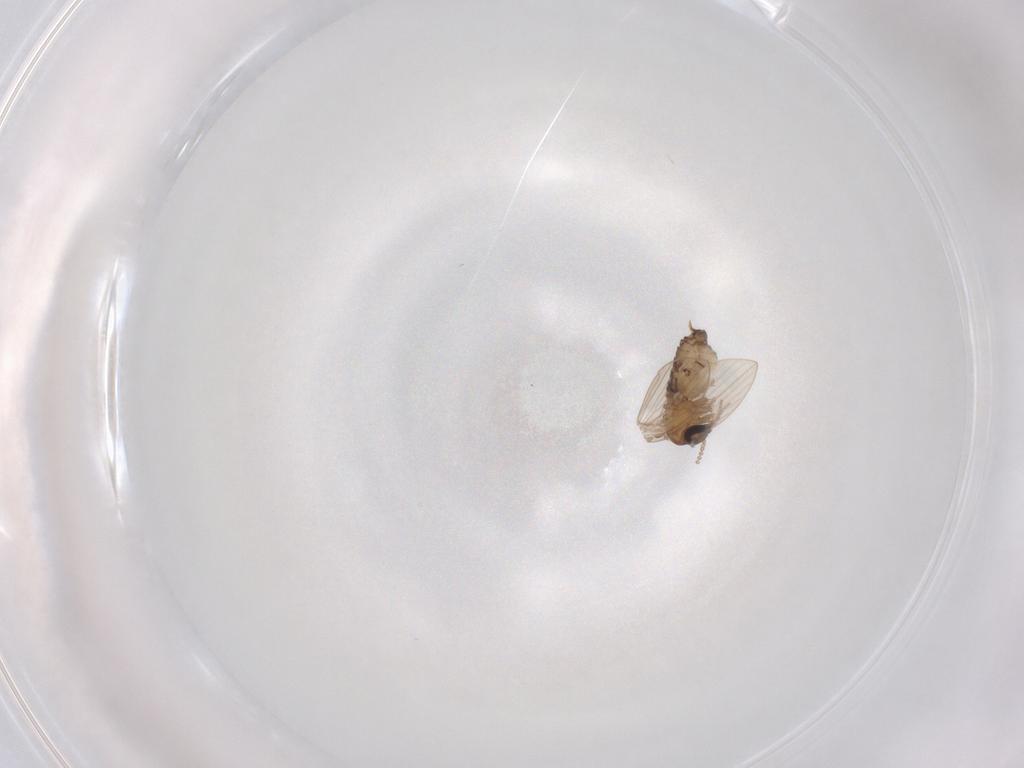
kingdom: Animalia
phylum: Arthropoda
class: Insecta
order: Diptera
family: Psychodidae
